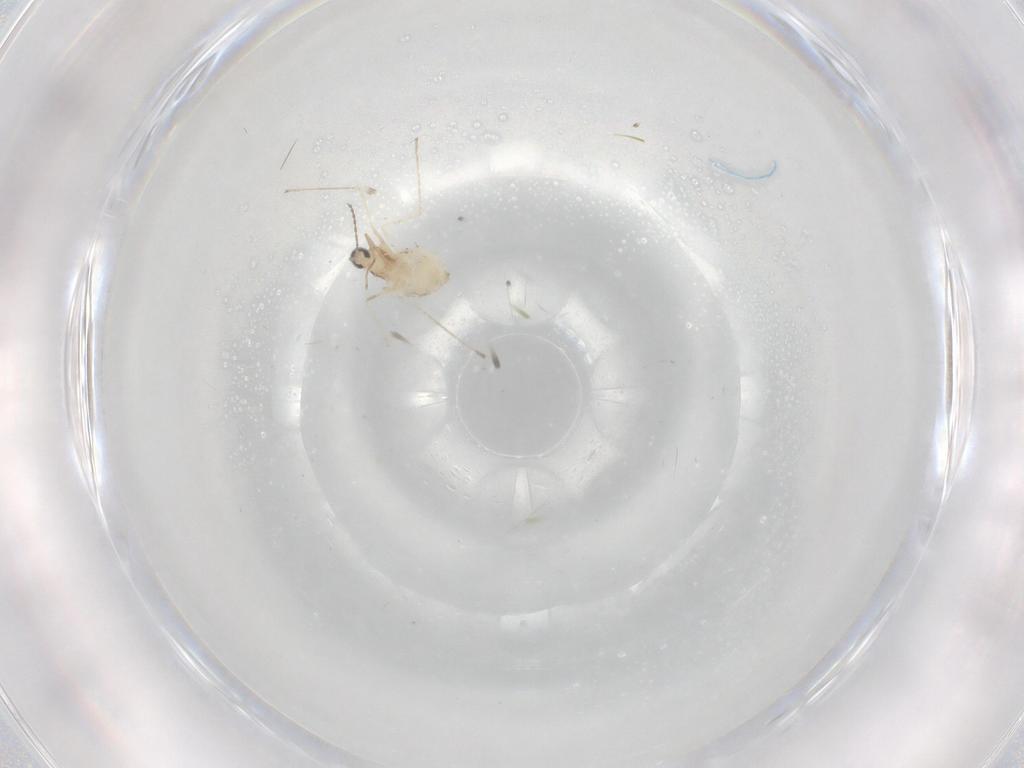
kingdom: Animalia
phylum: Arthropoda
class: Insecta
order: Diptera
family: Cecidomyiidae
